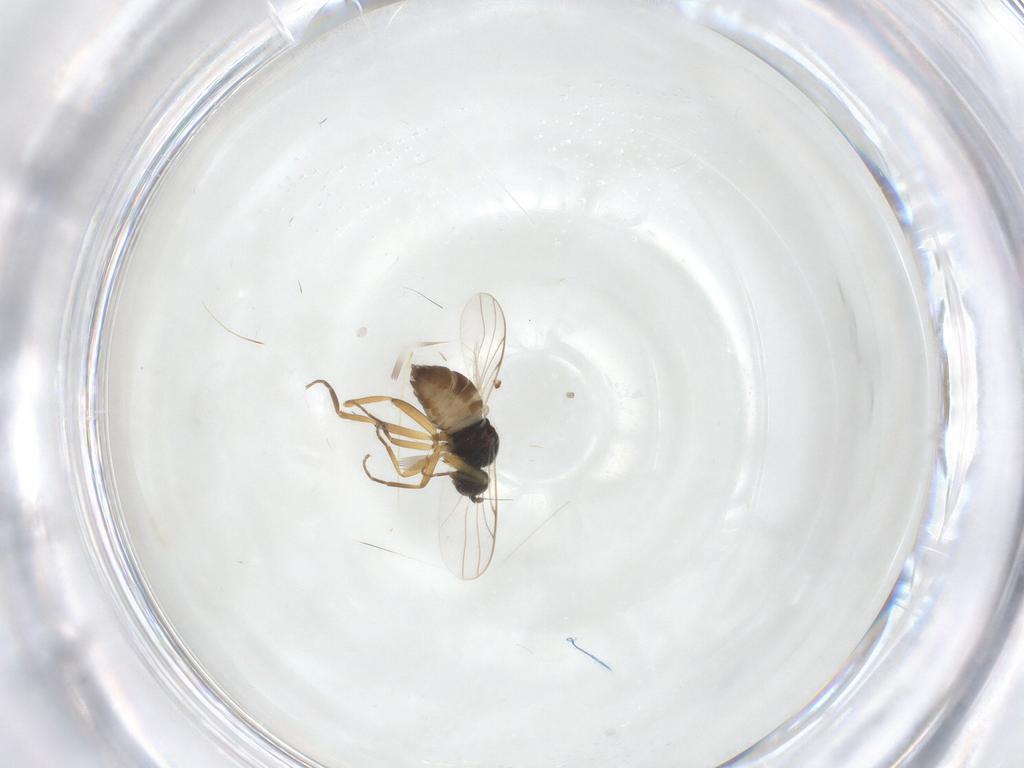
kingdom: Animalia
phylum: Arthropoda
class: Insecta
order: Diptera
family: Hybotidae
